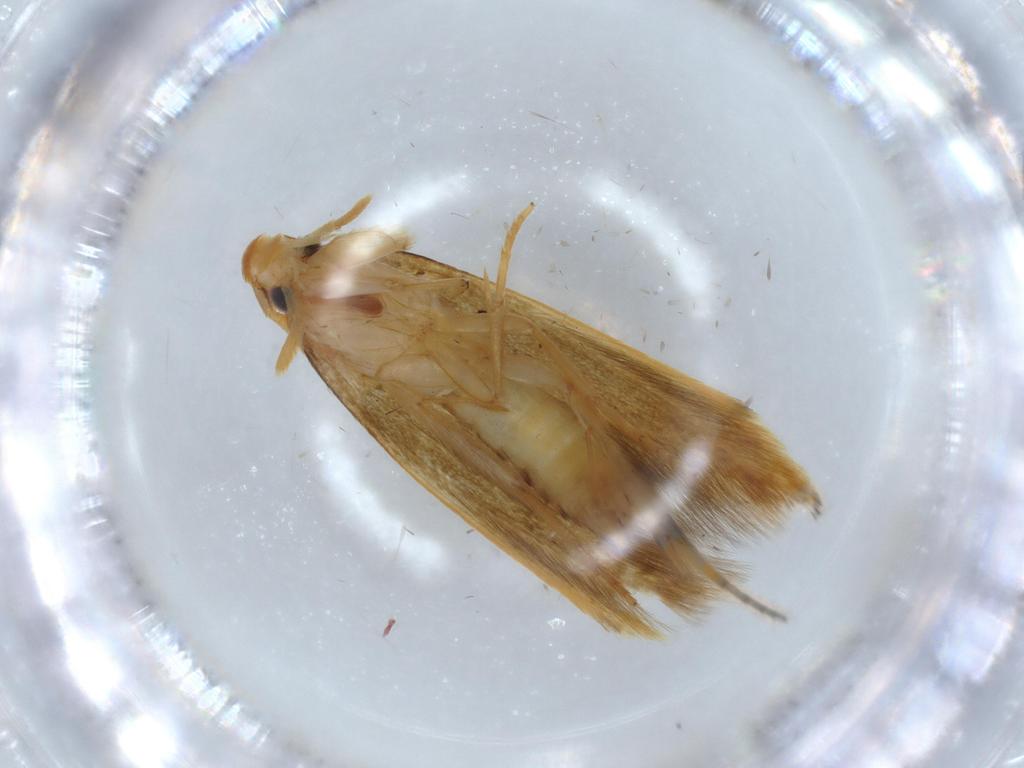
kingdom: Animalia
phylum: Arthropoda
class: Insecta
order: Lepidoptera
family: Tineidae
